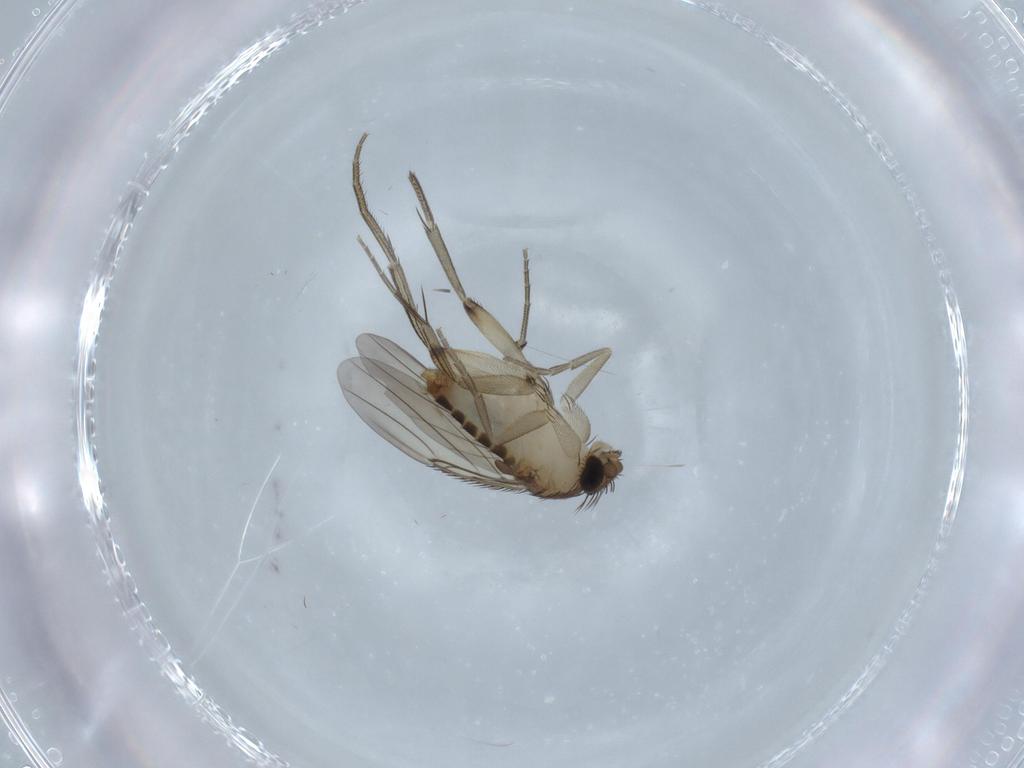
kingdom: Animalia
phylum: Arthropoda
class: Insecta
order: Diptera
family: Phoridae
